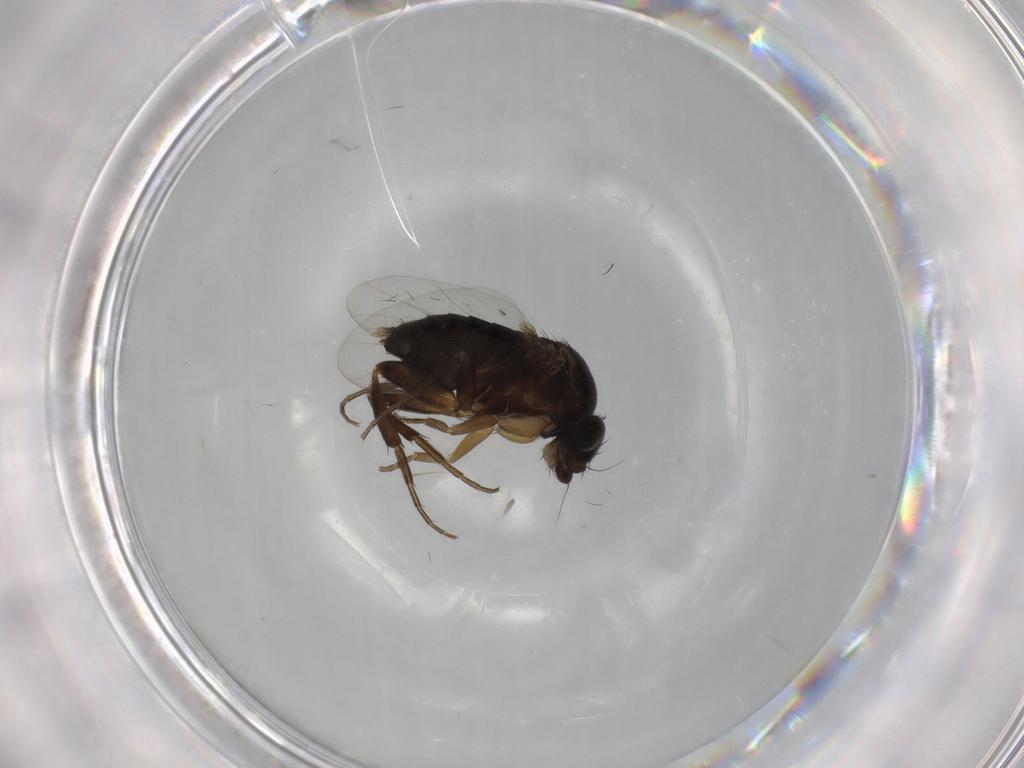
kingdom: Animalia
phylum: Arthropoda
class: Insecta
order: Diptera
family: Phoridae
